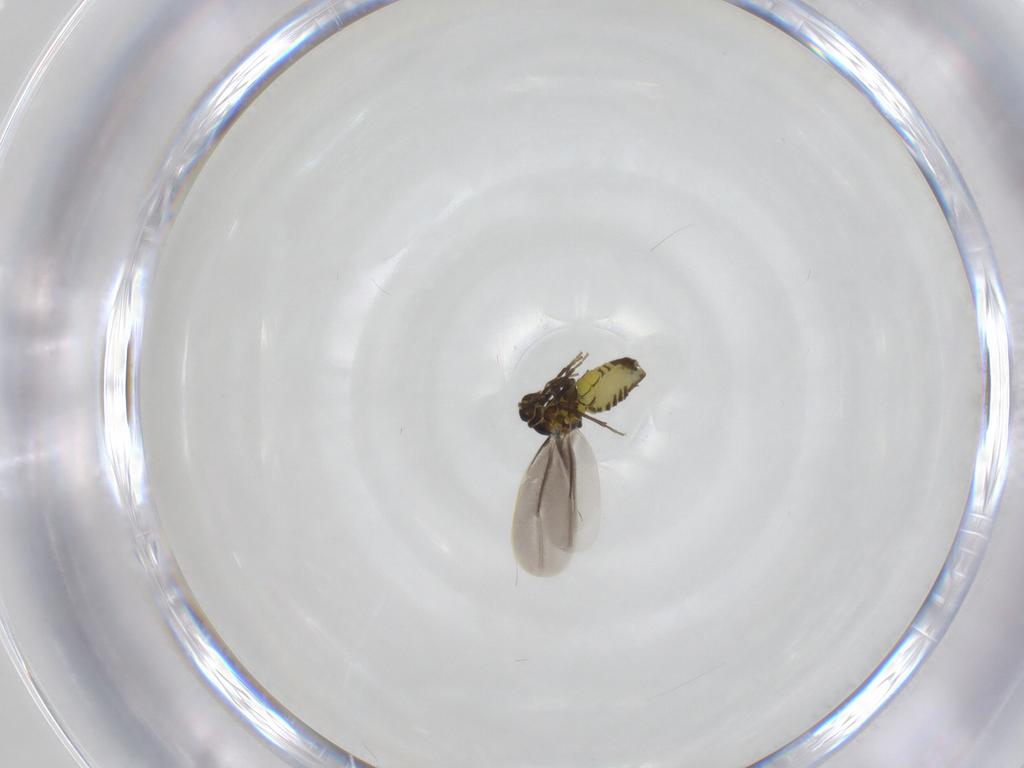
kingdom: Animalia
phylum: Arthropoda
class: Insecta
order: Hemiptera
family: Aleyrodidae
